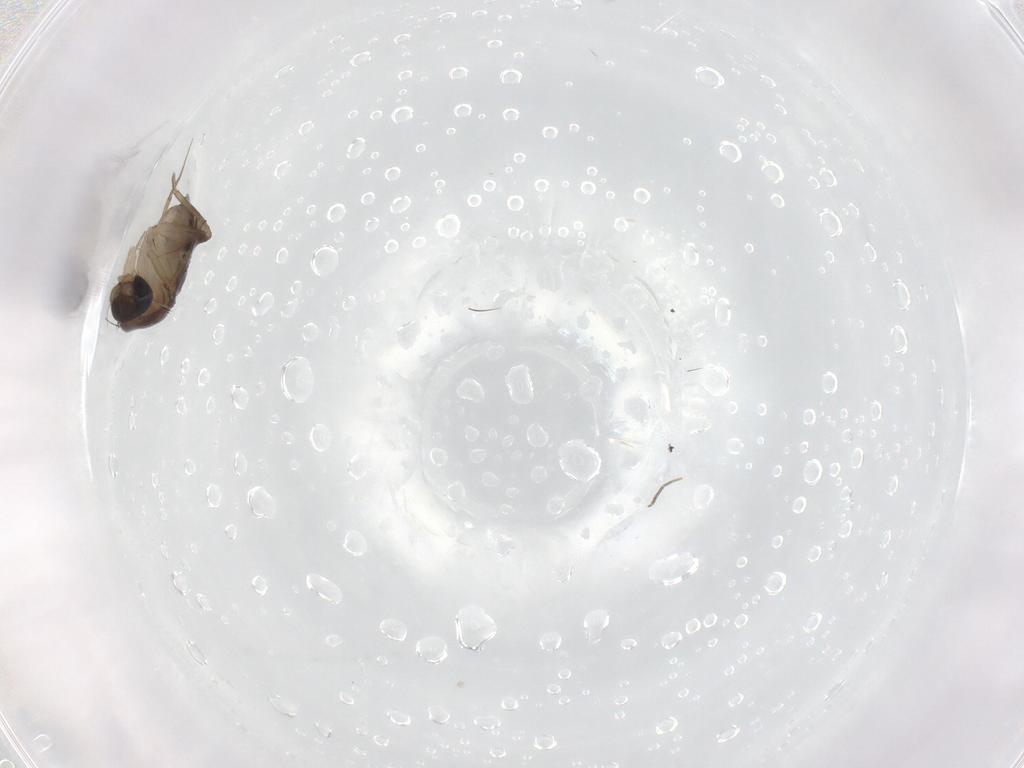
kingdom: Animalia
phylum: Arthropoda
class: Insecta
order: Diptera
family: Phoridae
